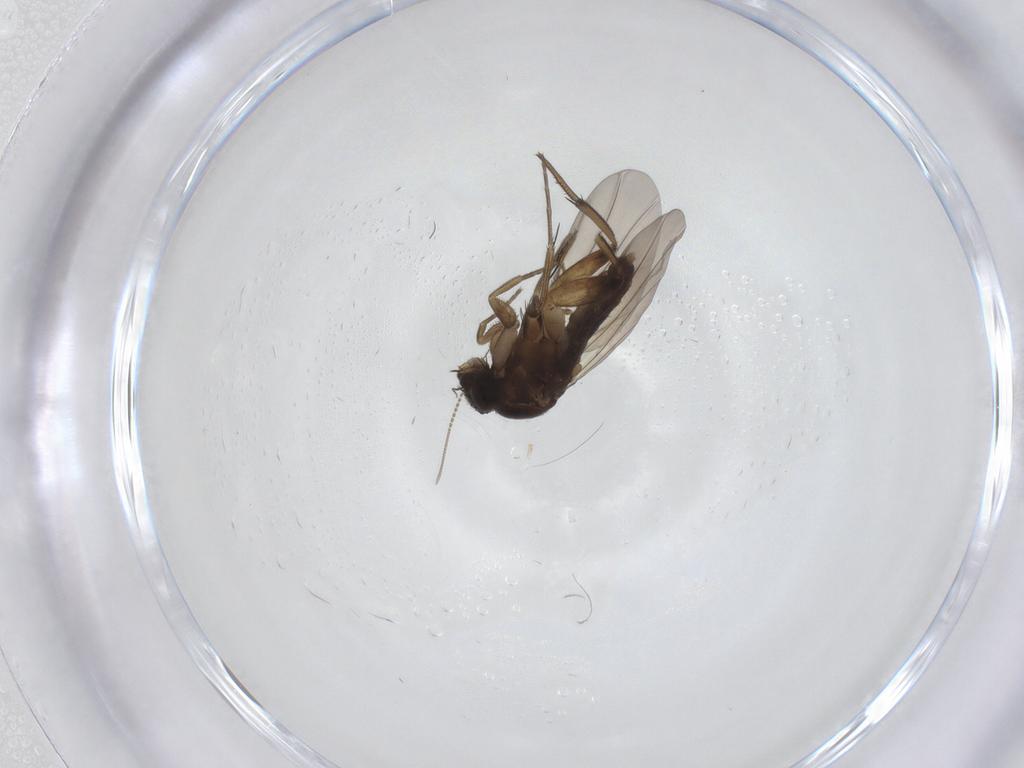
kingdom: Animalia
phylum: Arthropoda
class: Insecta
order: Diptera
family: Phoridae
